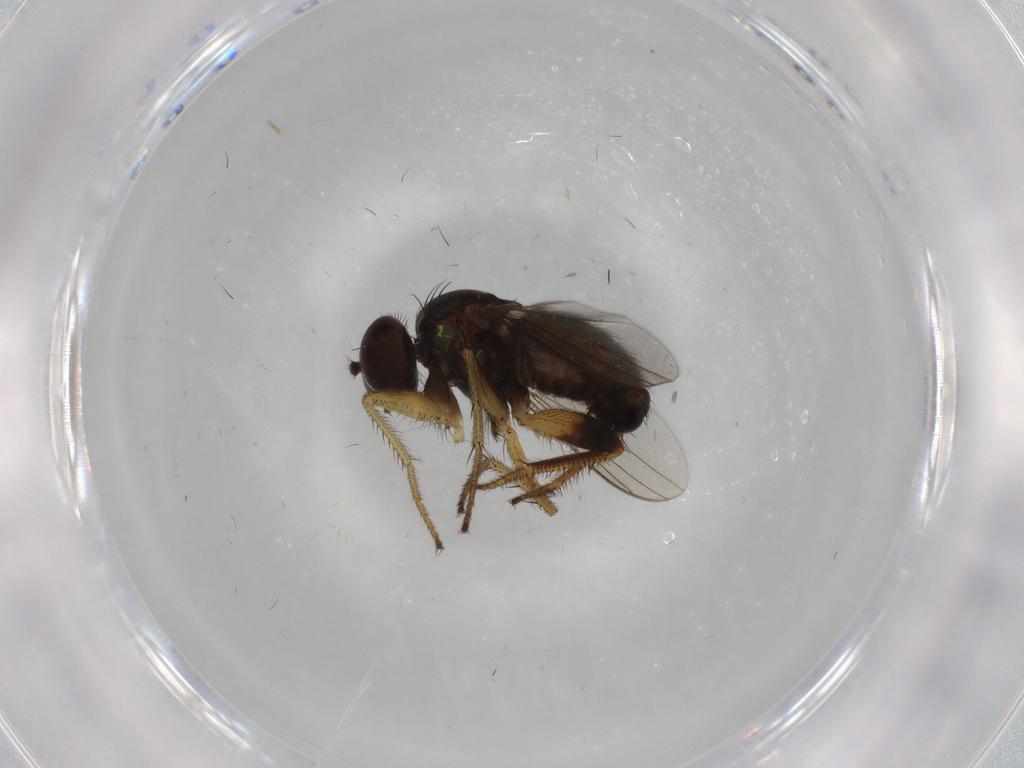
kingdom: Animalia
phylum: Arthropoda
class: Insecta
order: Diptera
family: Dolichopodidae
